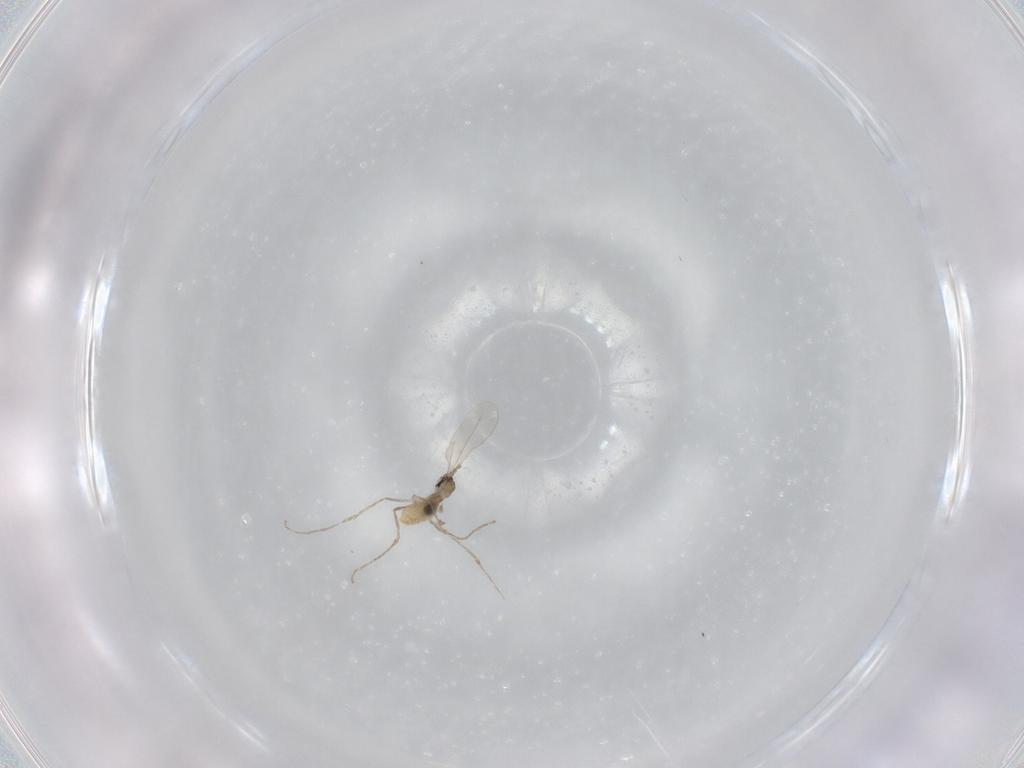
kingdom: Animalia
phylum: Arthropoda
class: Insecta
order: Diptera
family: Cecidomyiidae
